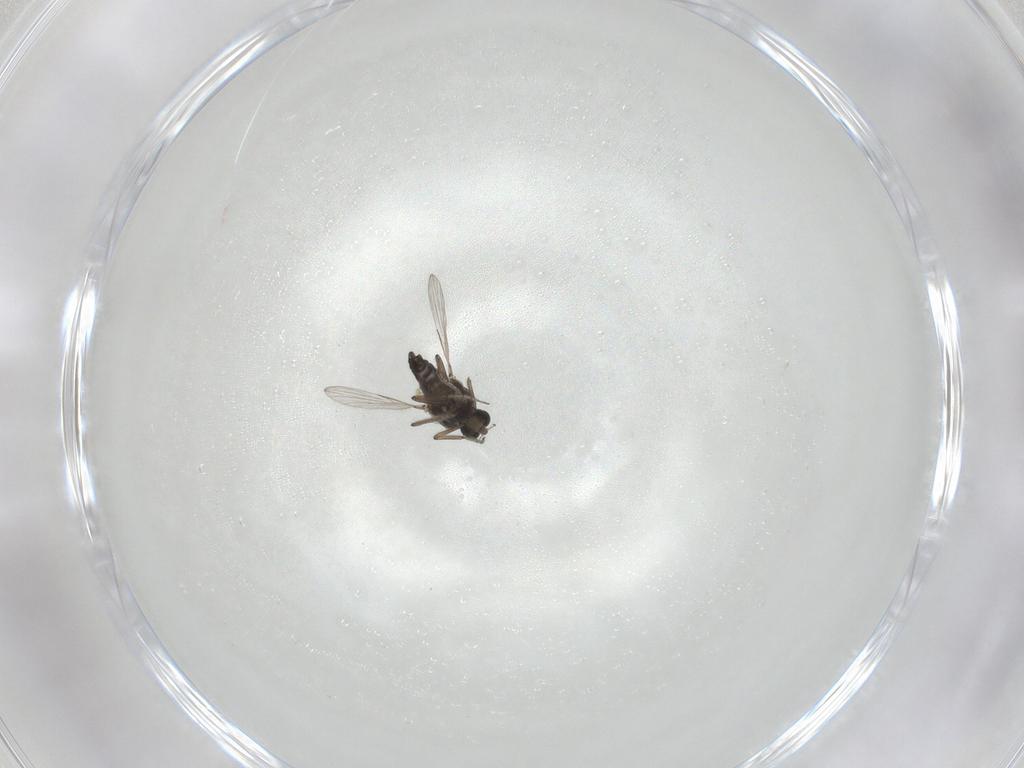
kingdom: Animalia
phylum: Arthropoda
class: Insecta
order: Diptera
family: Ceratopogonidae
